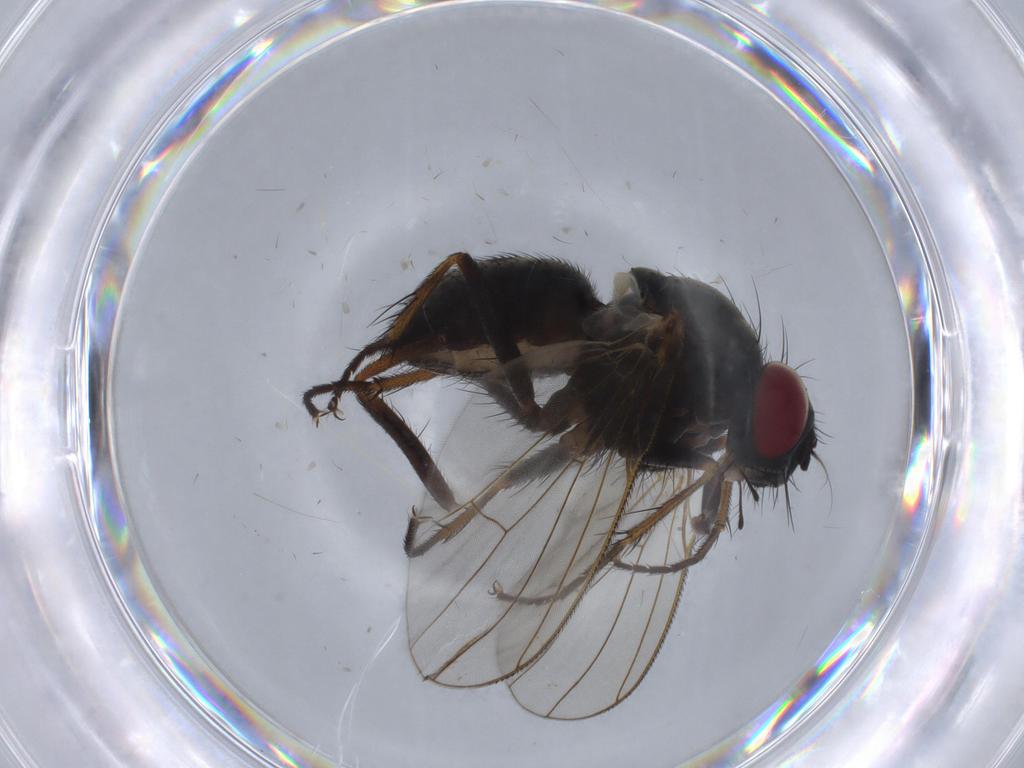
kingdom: Animalia
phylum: Arthropoda
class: Insecta
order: Diptera
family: Anthomyiidae
